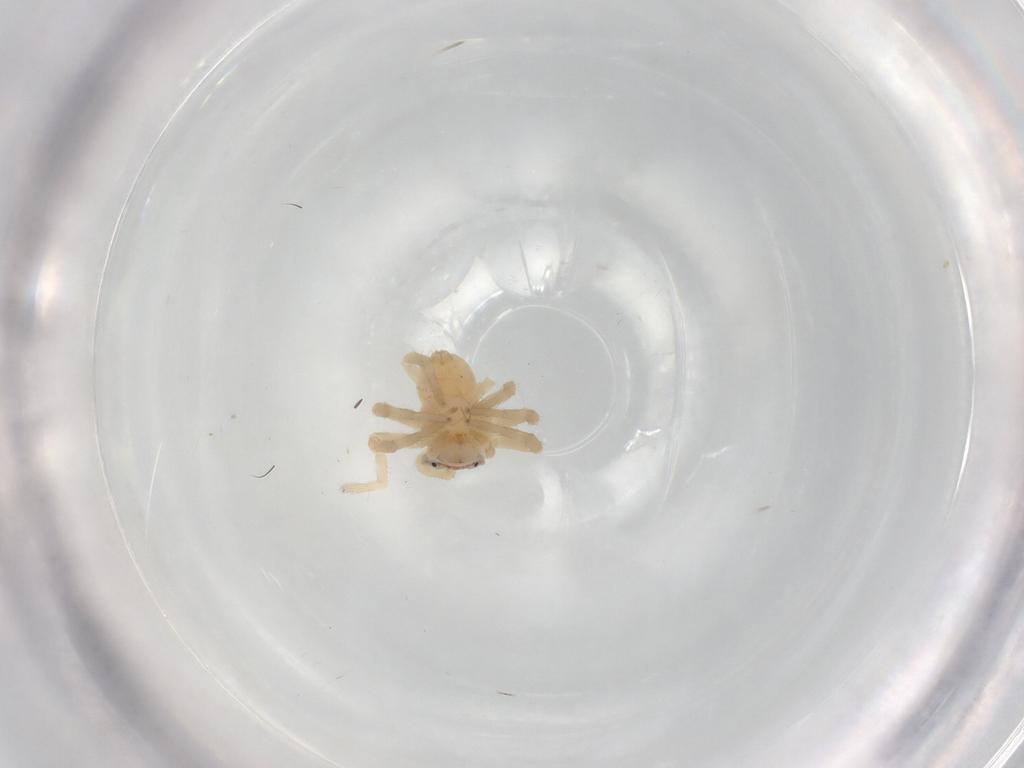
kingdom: Animalia
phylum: Arthropoda
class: Arachnida
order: Araneae
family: Thomisidae
